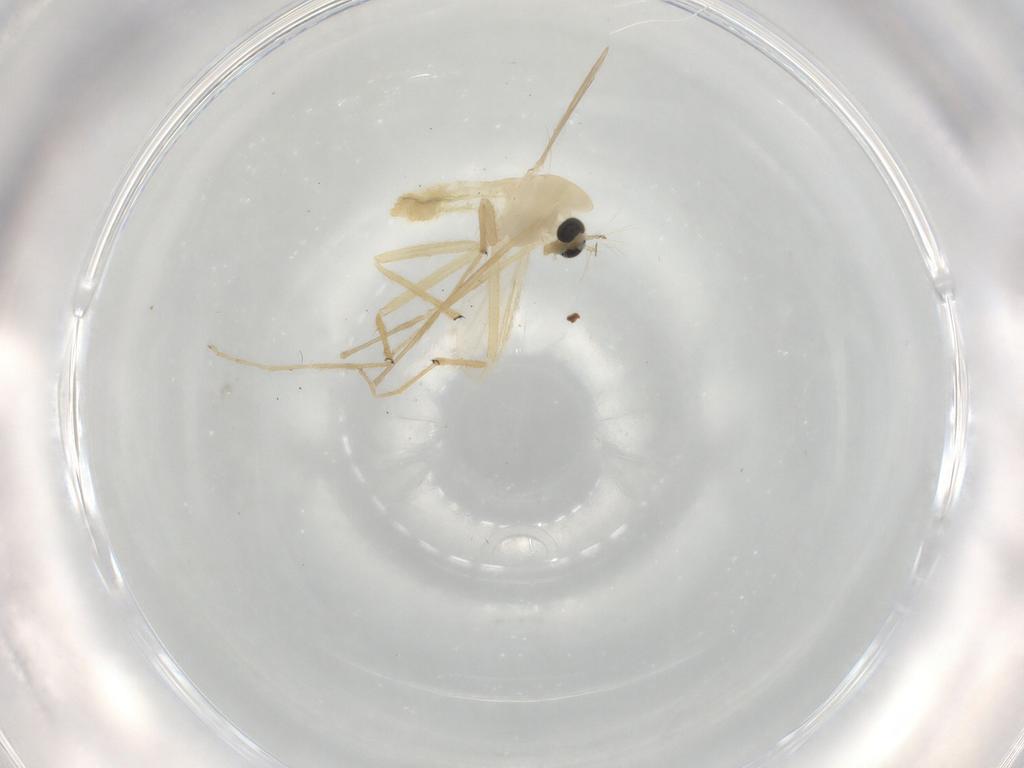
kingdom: Animalia
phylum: Arthropoda
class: Insecta
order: Diptera
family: Chironomidae
